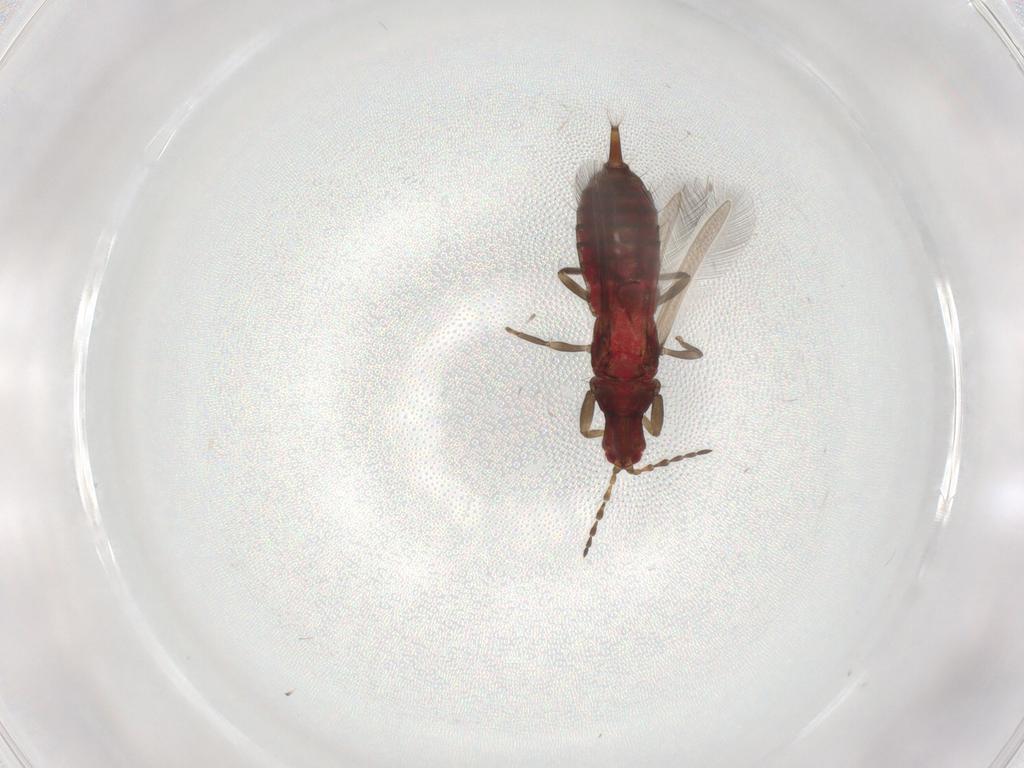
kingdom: Animalia
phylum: Arthropoda
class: Insecta
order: Thysanoptera
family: Phlaeothripidae
